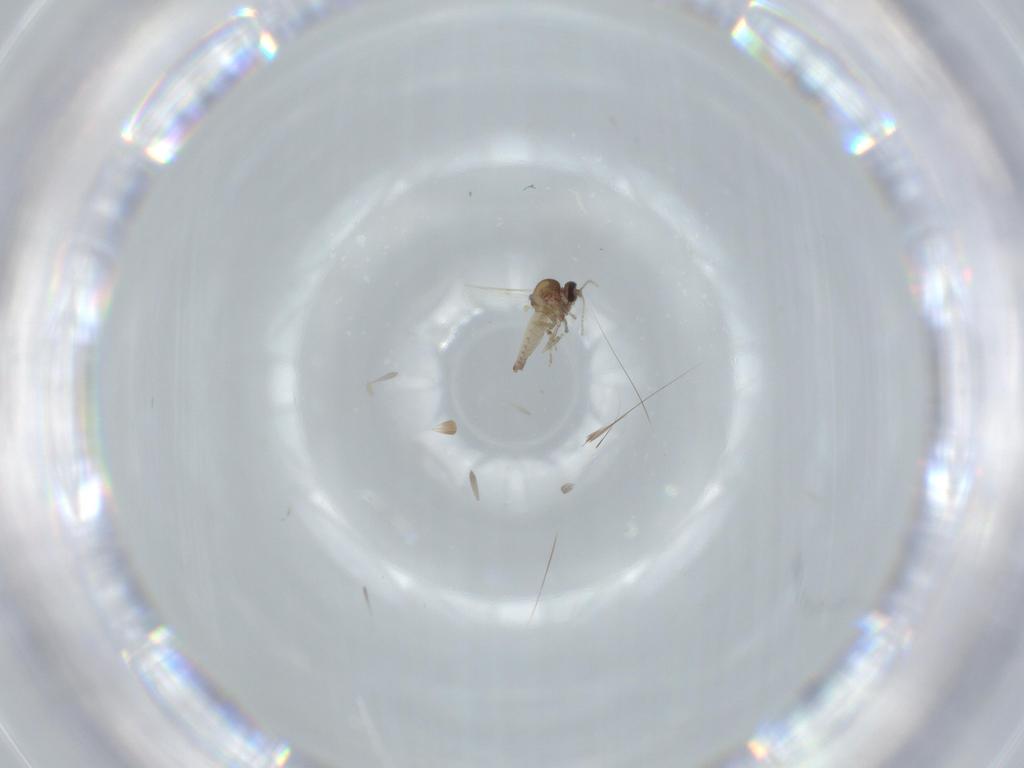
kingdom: Animalia
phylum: Arthropoda
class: Insecta
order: Diptera
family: Ceratopogonidae
